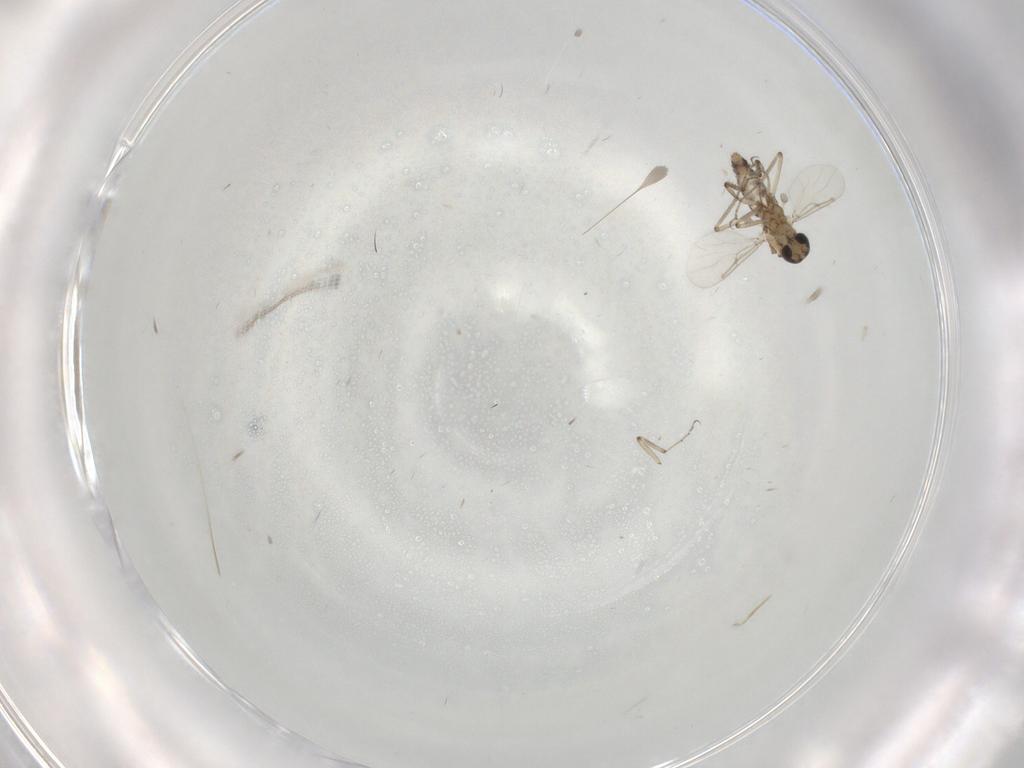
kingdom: Animalia
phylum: Arthropoda
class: Insecta
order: Diptera
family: Ceratopogonidae
